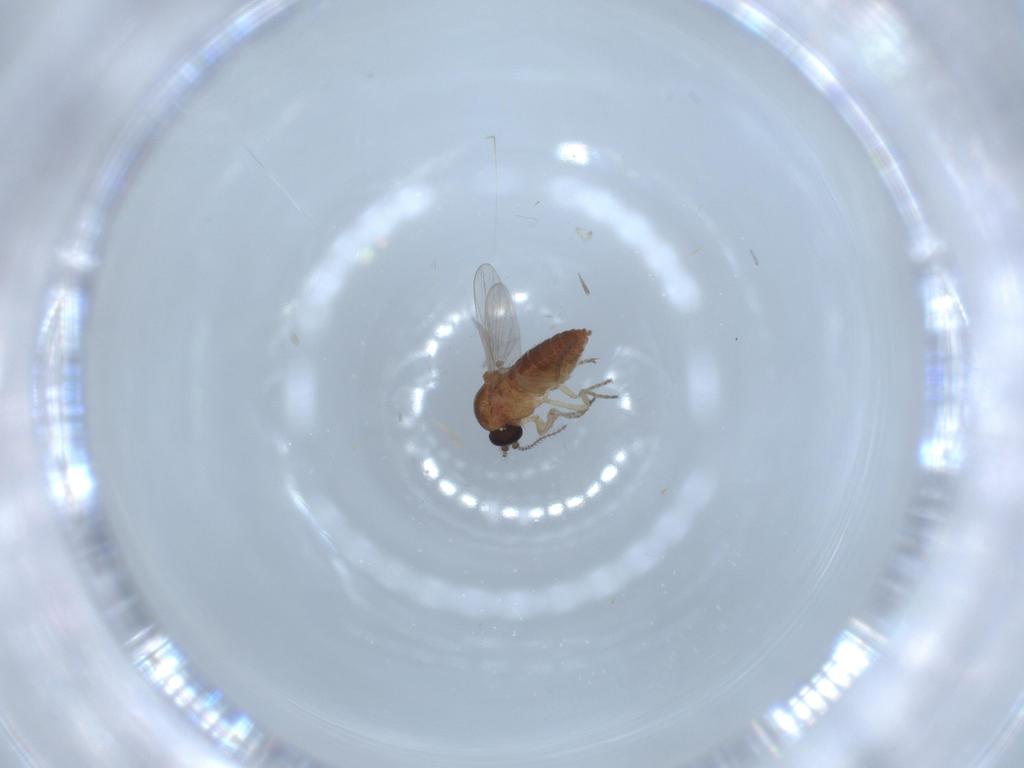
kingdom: Animalia
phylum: Arthropoda
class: Insecta
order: Diptera
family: Ceratopogonidae
